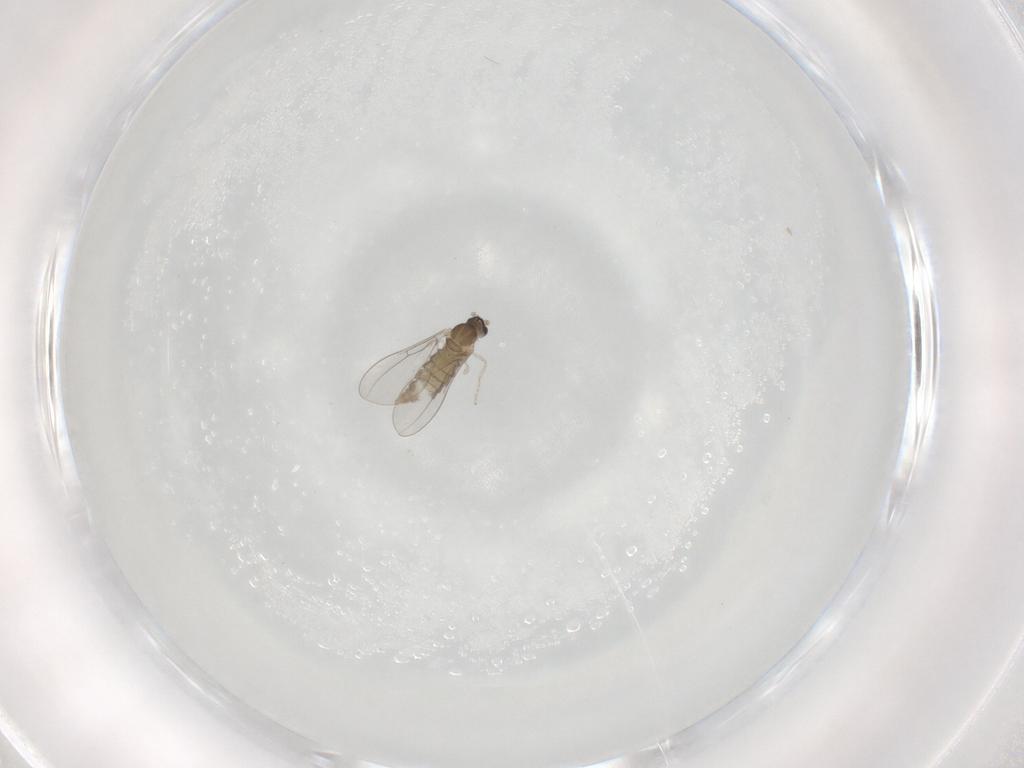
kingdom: Animalia
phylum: Arthropoda
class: Insecta
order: Diptera
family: Cecidomyiidae
